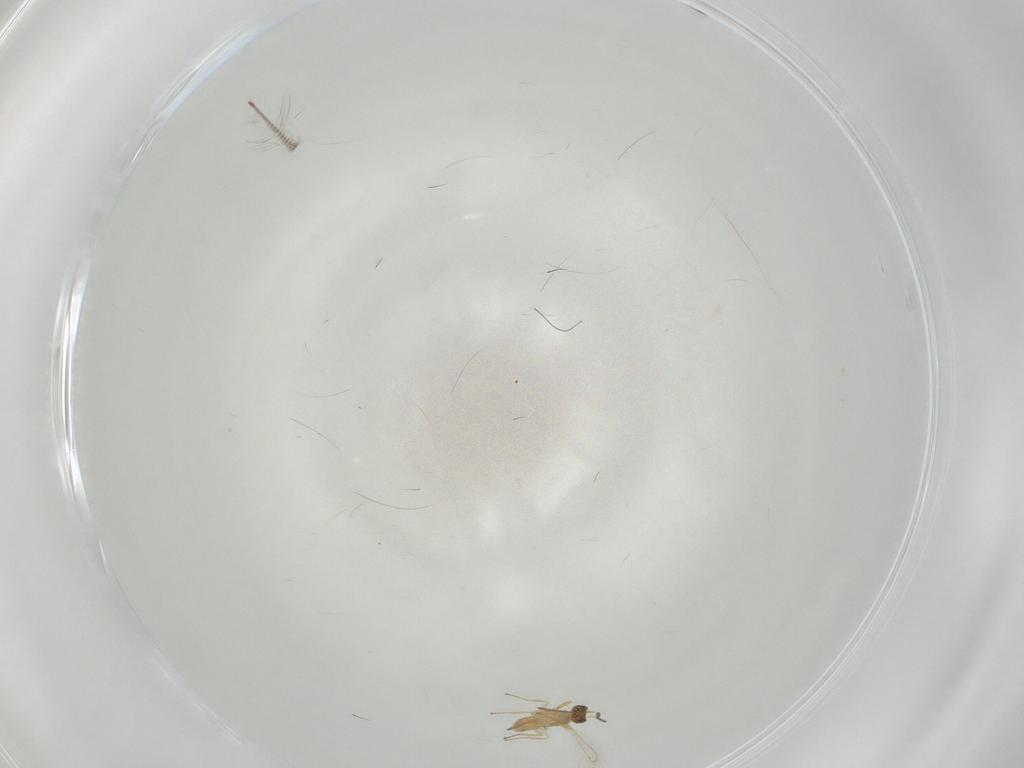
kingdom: Animalia
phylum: Arthropoda
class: Insecta
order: Hymenoptera
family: Mymaridae
